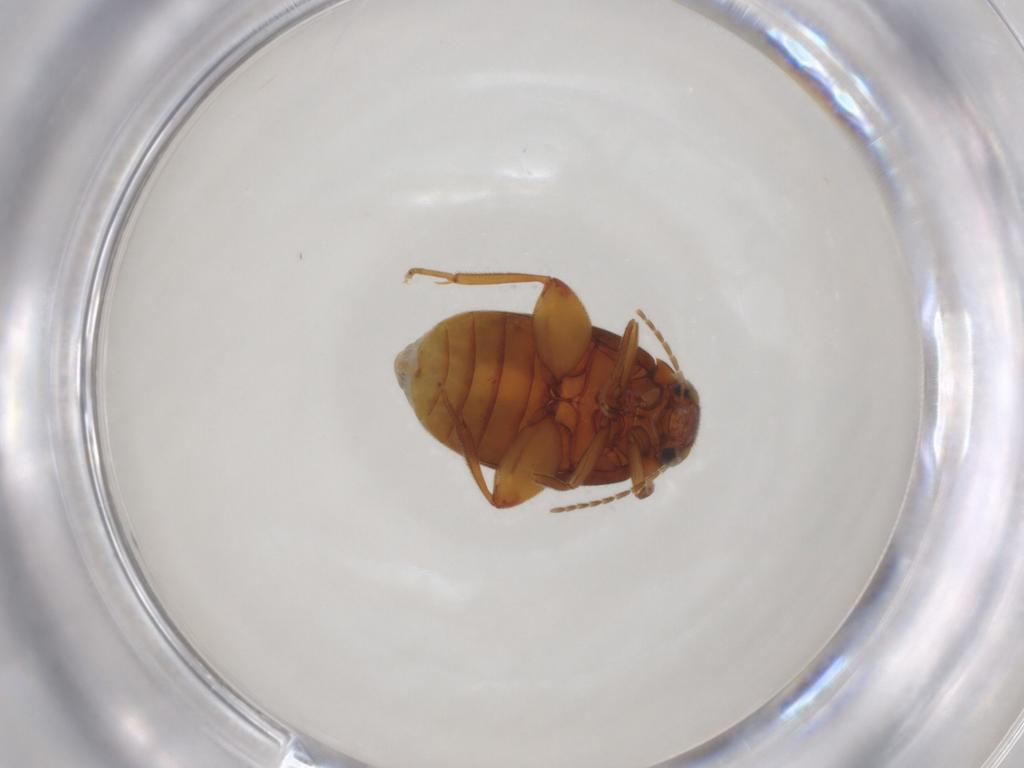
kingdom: Animalia
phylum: Arthropoda
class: Insecta
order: Coleoptera
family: Scirtidae
